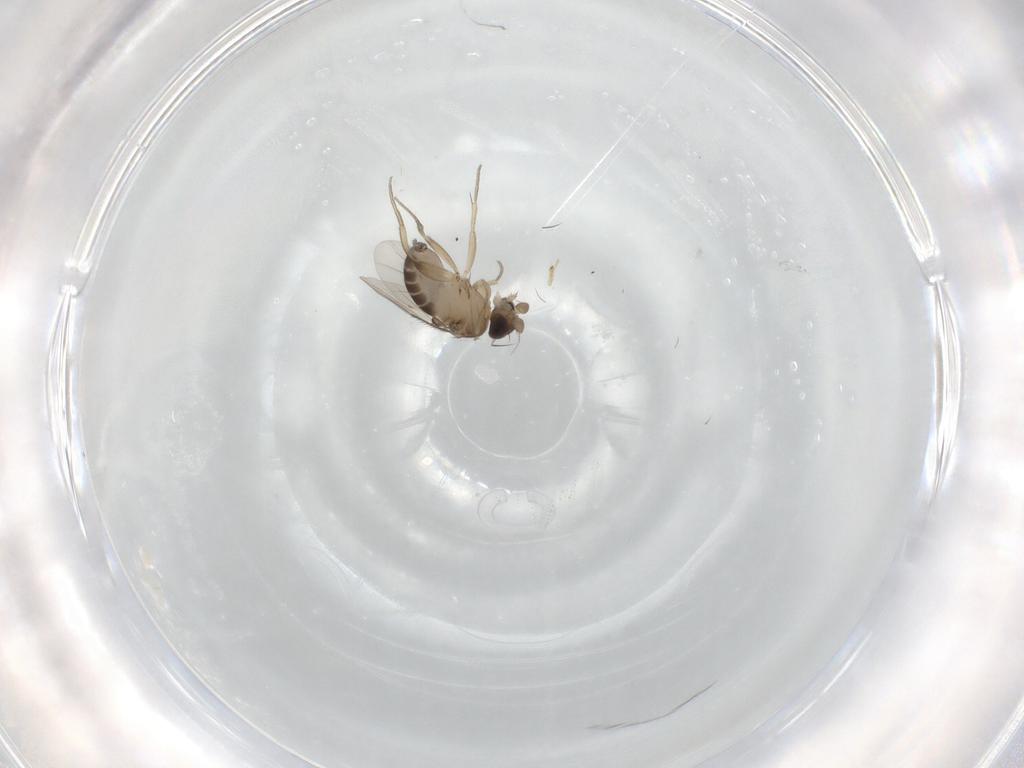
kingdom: Animalia
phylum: Arthropoda
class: Insecta
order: Diptera
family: Phoridae
